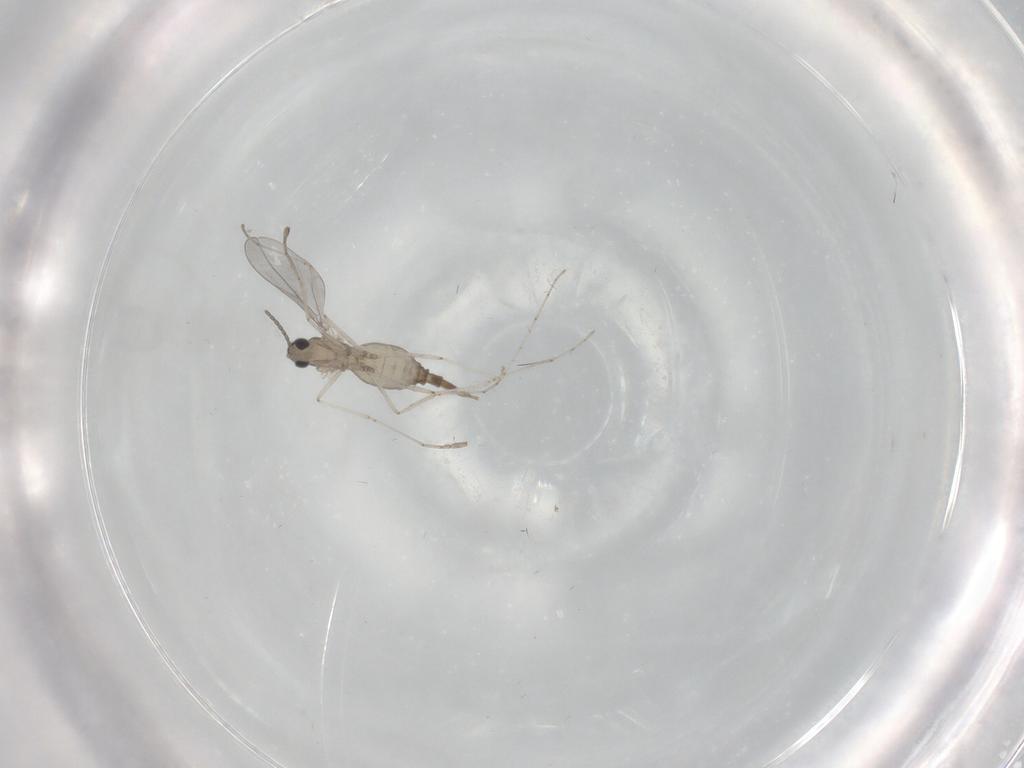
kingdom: Animalia
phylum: Arthropoda
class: Insecta
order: Diptera
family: Cecidomyiidae
